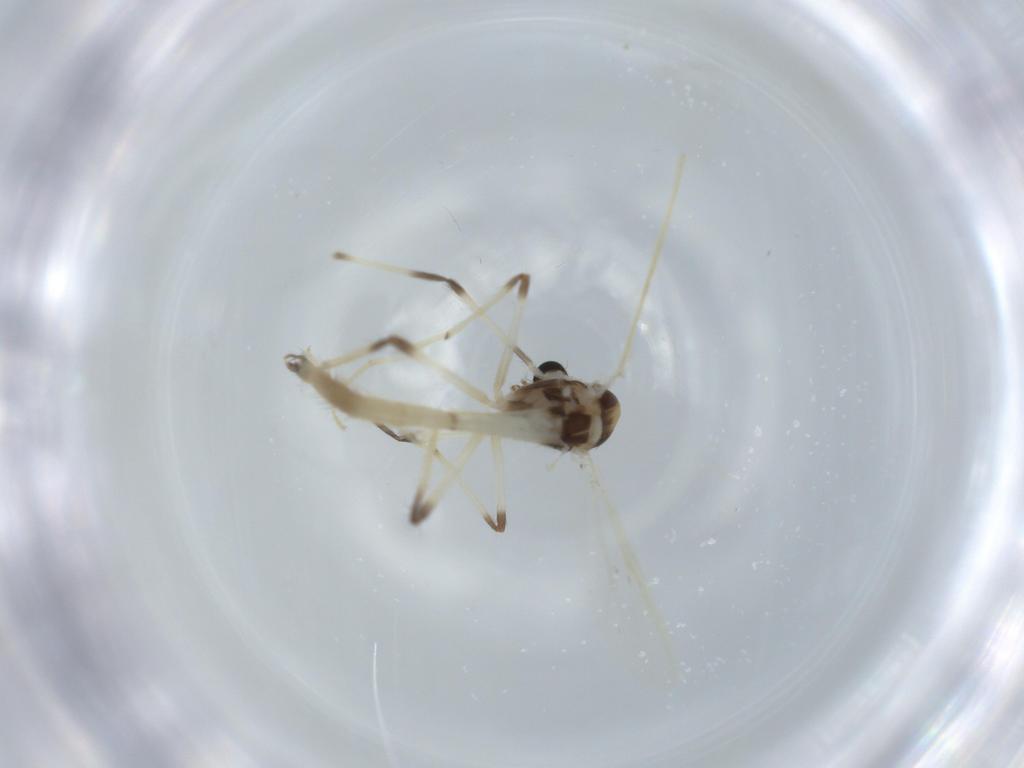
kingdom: Animalia
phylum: Arthropoda
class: Insecta
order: Diptera
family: Chironomidae
